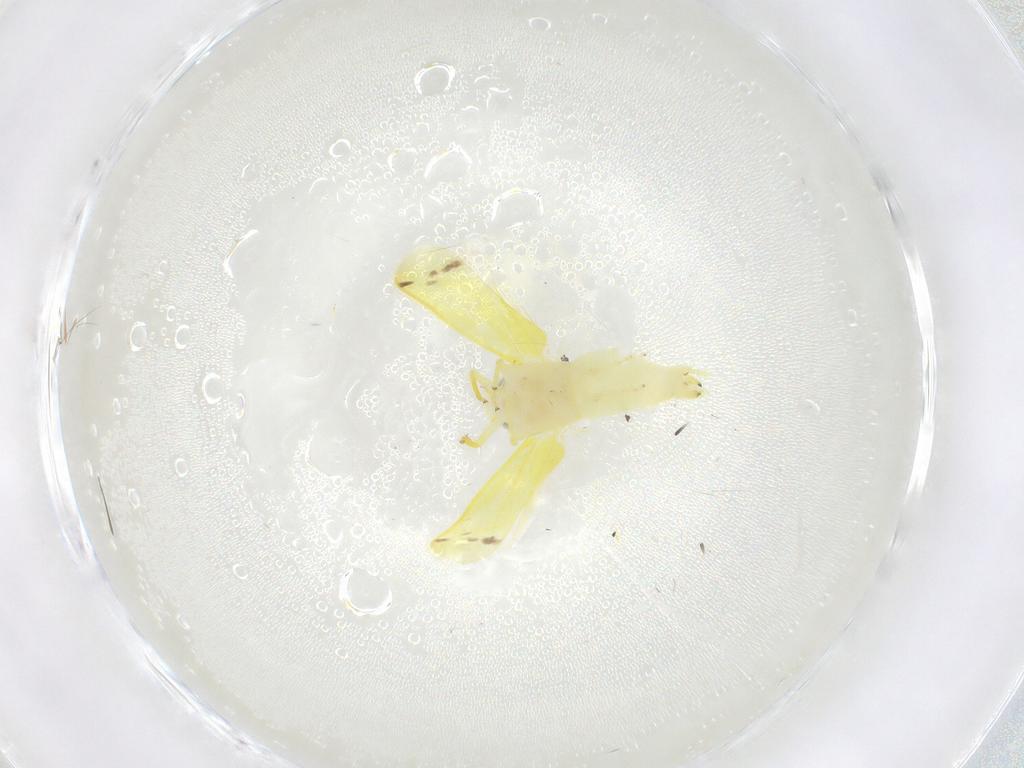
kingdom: Animalia
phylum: Arthropoda
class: Insecta
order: Hemiptera
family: Cicadellidae
